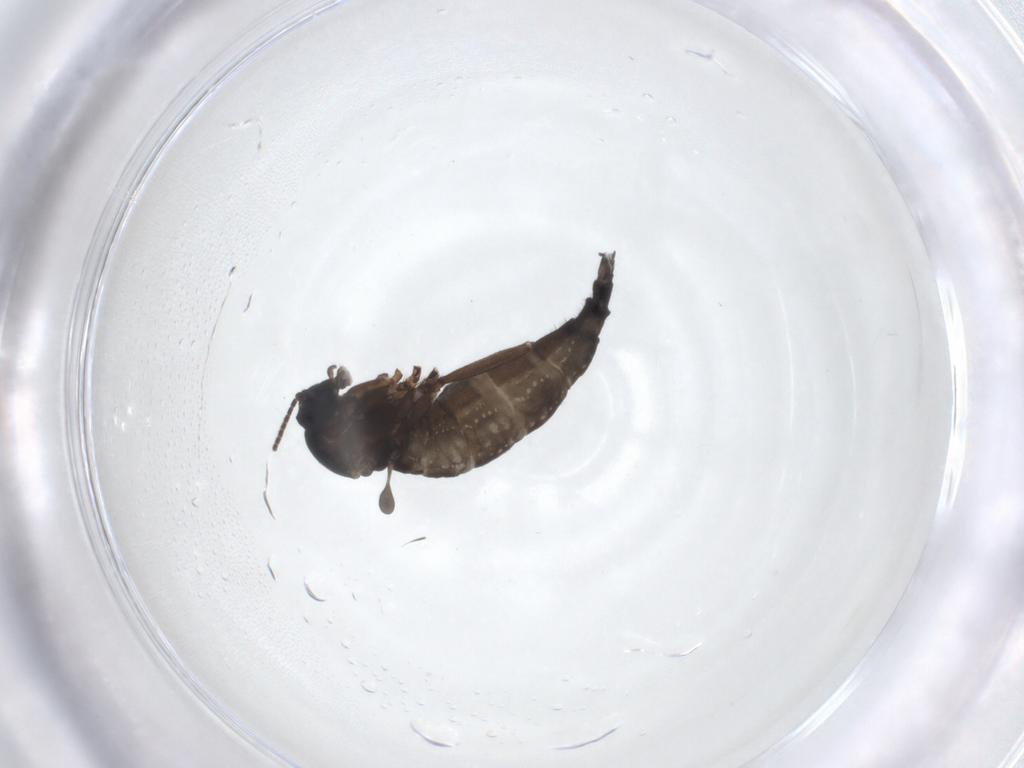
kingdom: Animalia
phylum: Arthropoda
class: Insecta
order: Diptera
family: Sciaridae
